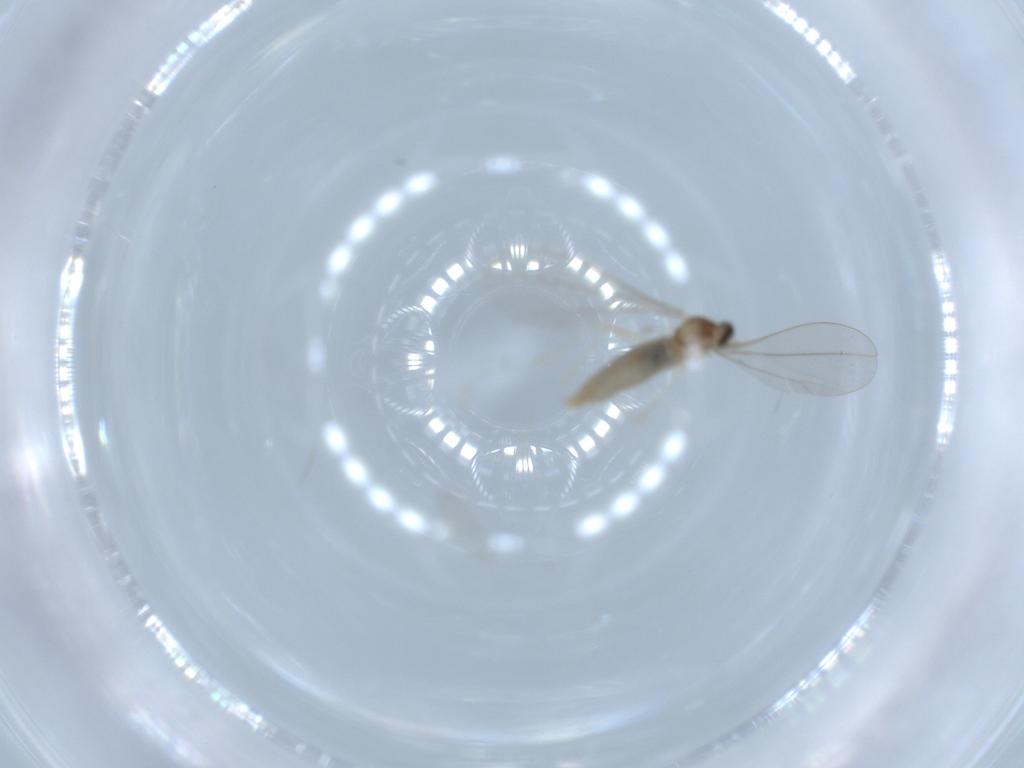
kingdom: Animalia
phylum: Arthropoda
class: Insecta
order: Diptera
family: Cecidomyiidae
